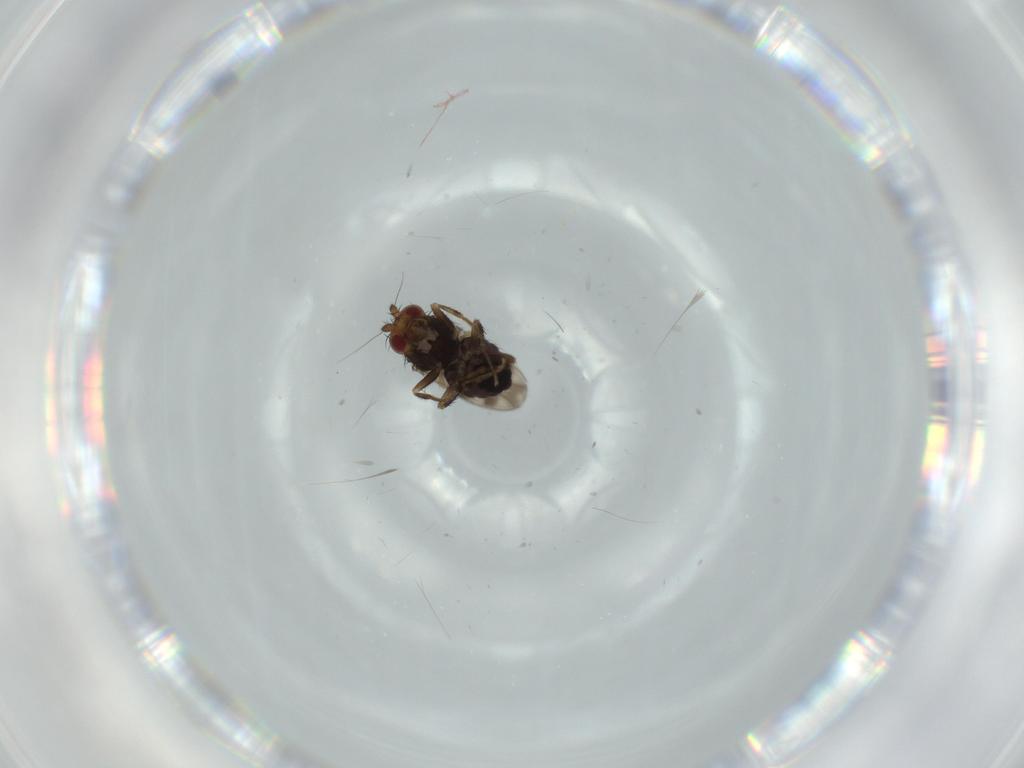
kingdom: Animalia
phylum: Arthropoda
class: Insecta
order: Diptera
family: Sphaeroceridae
